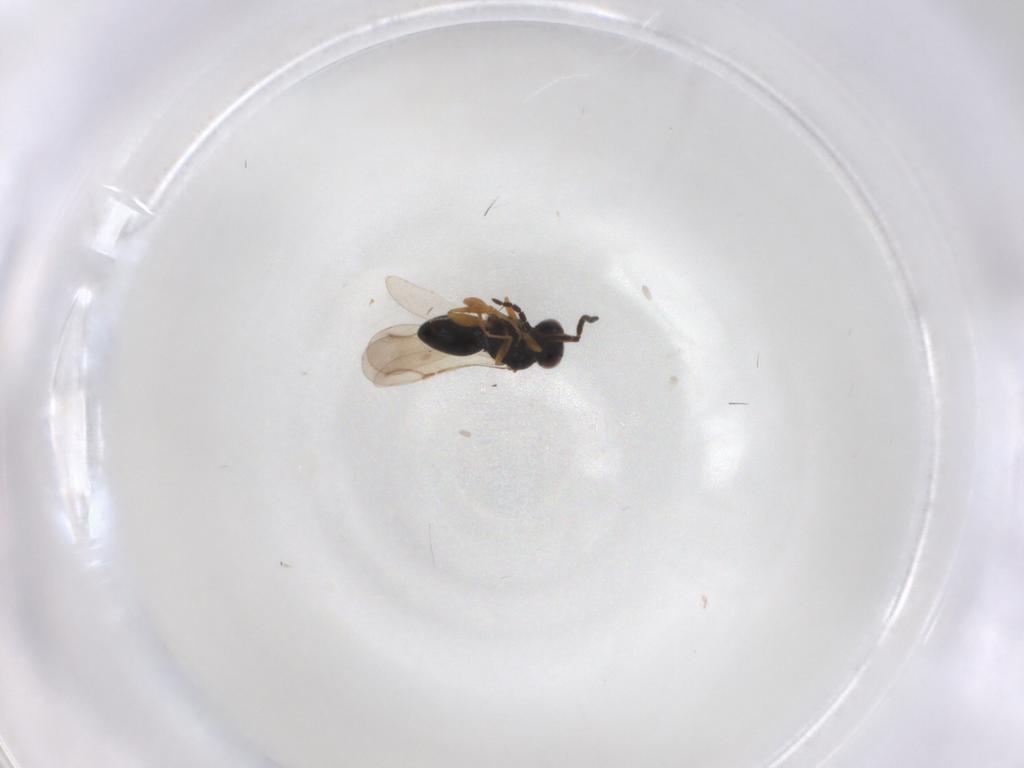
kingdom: Animalia
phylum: Arthropoda
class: Insecta
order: Hymenoptera
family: Ceraphronidae
